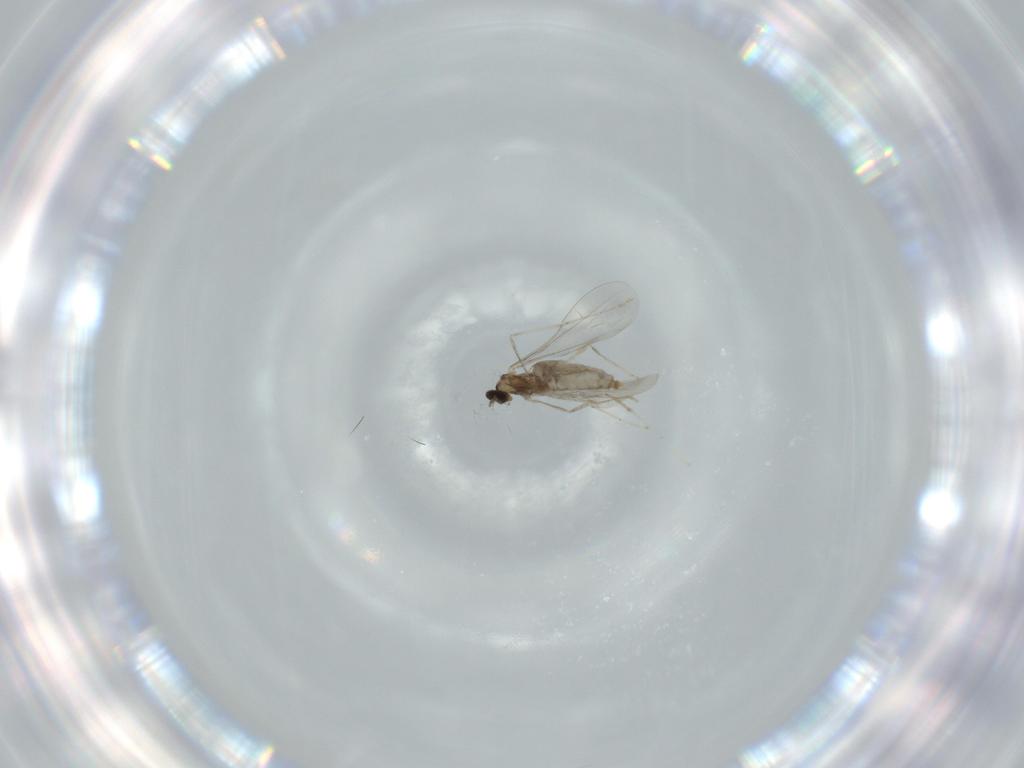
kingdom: Animalia
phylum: Arthropoda
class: Insecta
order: Diptera
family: Cecidomyiidae
